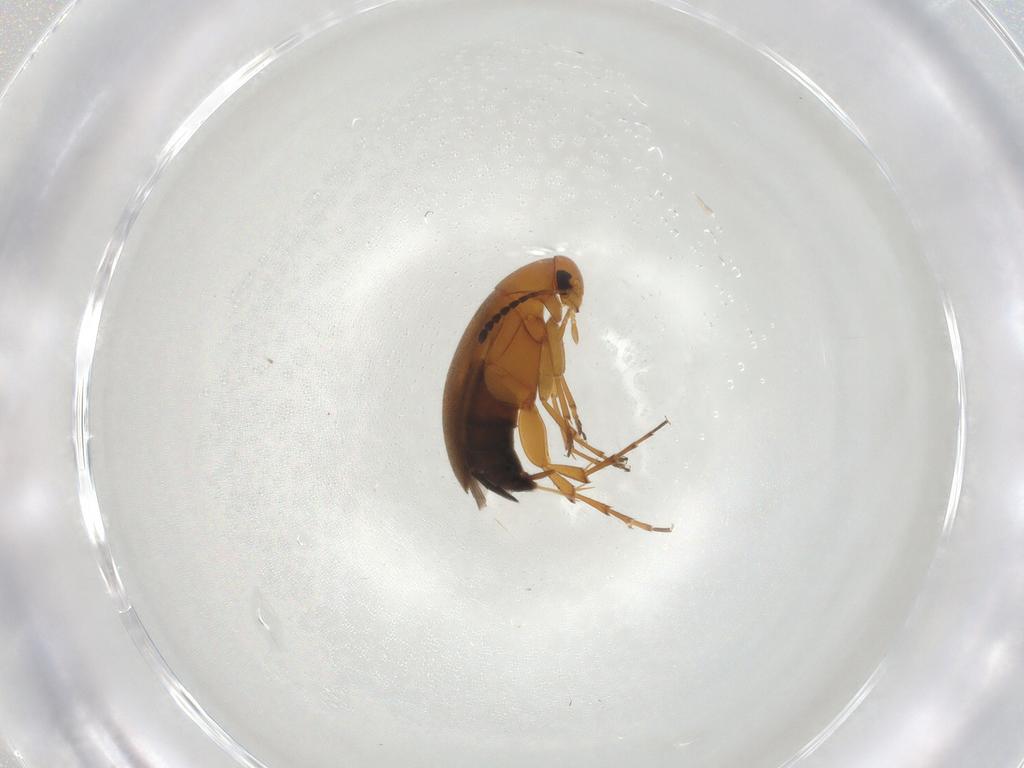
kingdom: Animalia
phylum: Arthropoda
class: Insecta
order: Coleoptera
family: Scraptiidae
